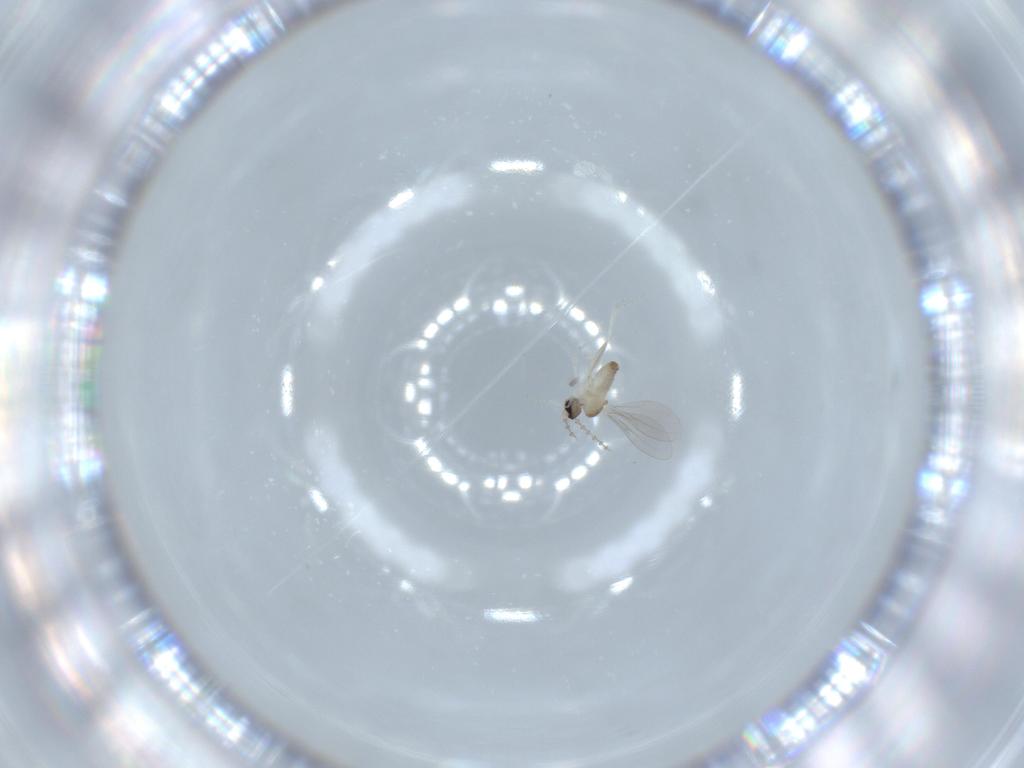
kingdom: Animalia
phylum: Arthropoda
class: Insecta
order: Diptera
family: Cecidomyiidae
